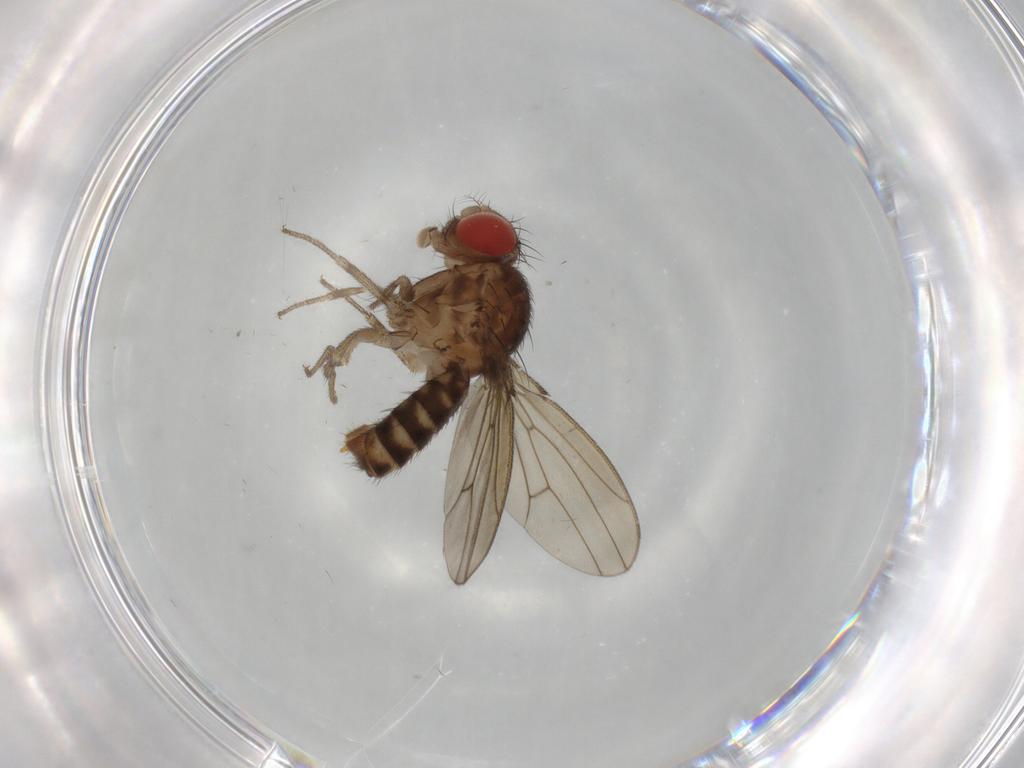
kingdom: Animalia
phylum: Arthropoda
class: Insecta
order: Diptera
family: Drosophilidae
